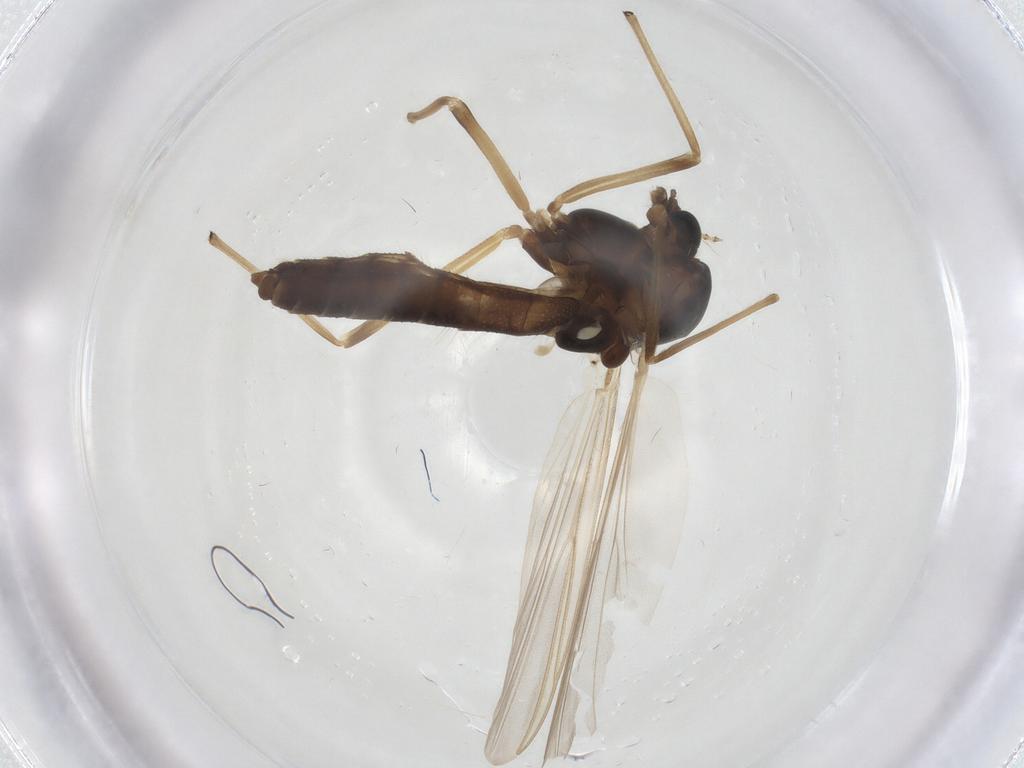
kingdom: Animalia
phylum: Arthropoda
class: Insecta
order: Diptera
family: Chironomidae
